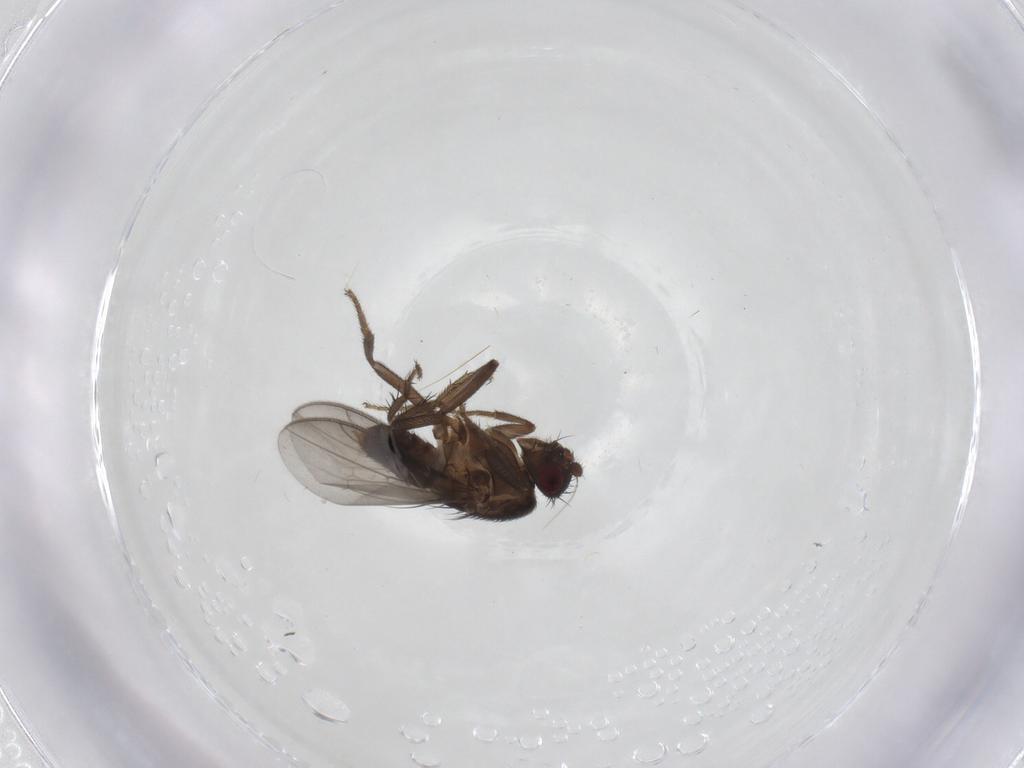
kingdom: Animalia
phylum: Arthropoda
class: Insecta
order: Diptera
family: Sphaeroceridae
